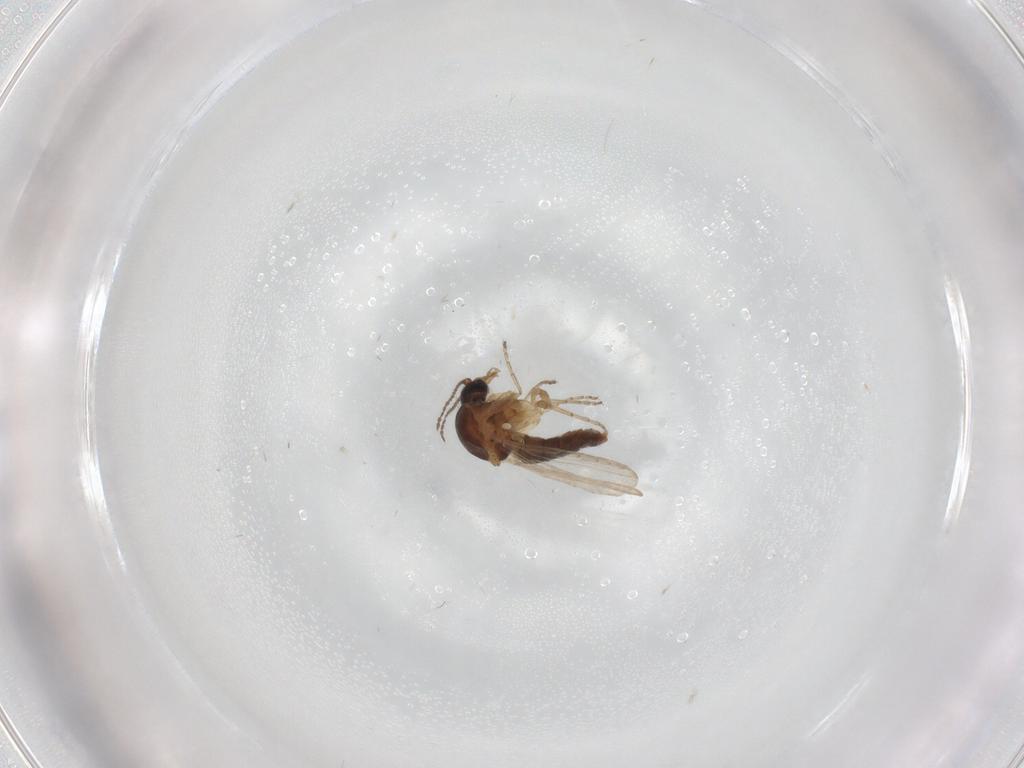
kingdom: Animalia
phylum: Arthropoda
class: Insecta
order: Diptera
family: Ceratopogonidae
